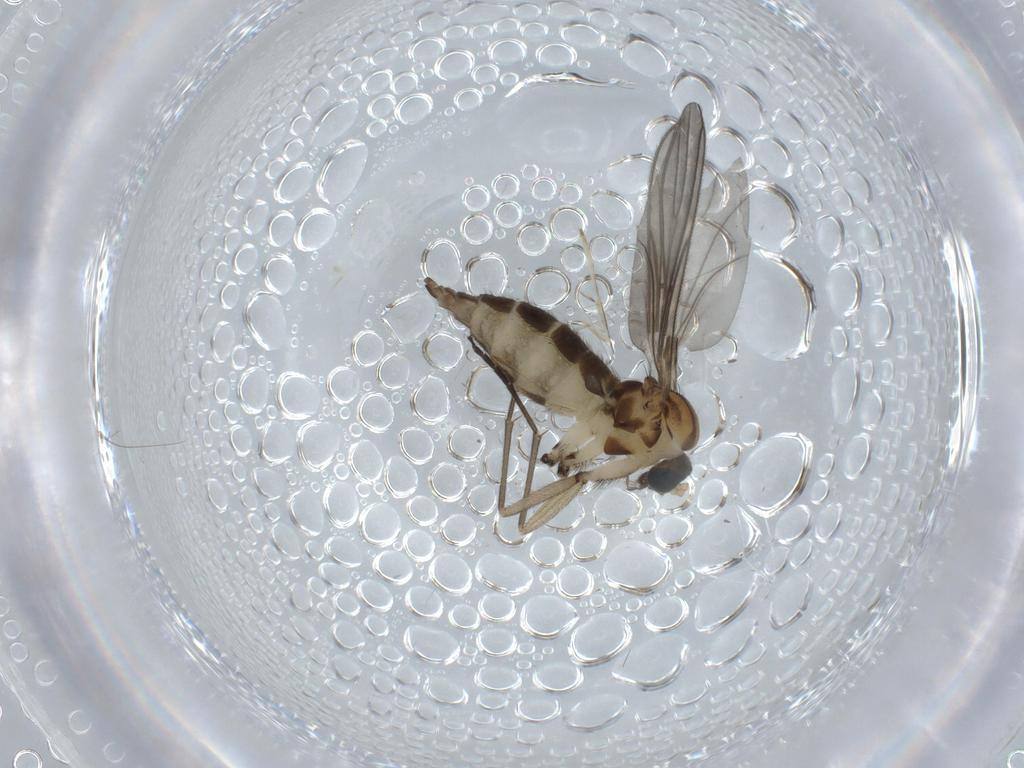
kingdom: Animalia
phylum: Arthropoda
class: Insecta
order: Diptera
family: Sciaridae
